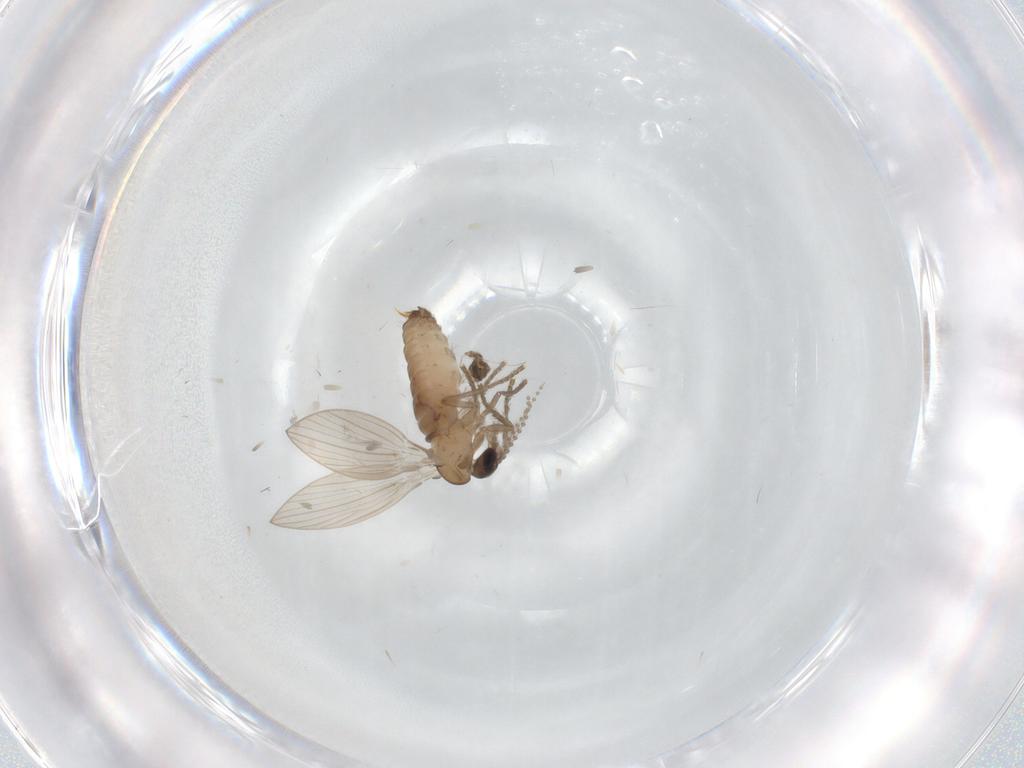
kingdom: Animalia
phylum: Arthropoda
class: Insecta
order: Diptera
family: Psychodidae
